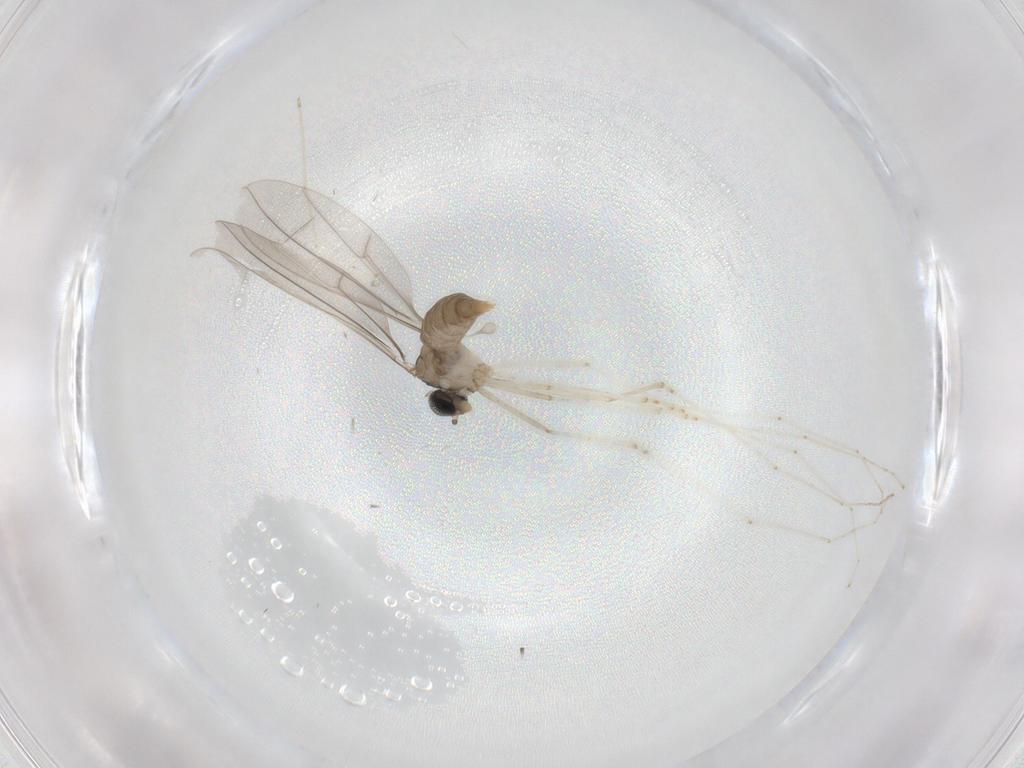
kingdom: Animalia
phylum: Arthropoda
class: Insecta
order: Diptera
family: Cecidomyiidae
